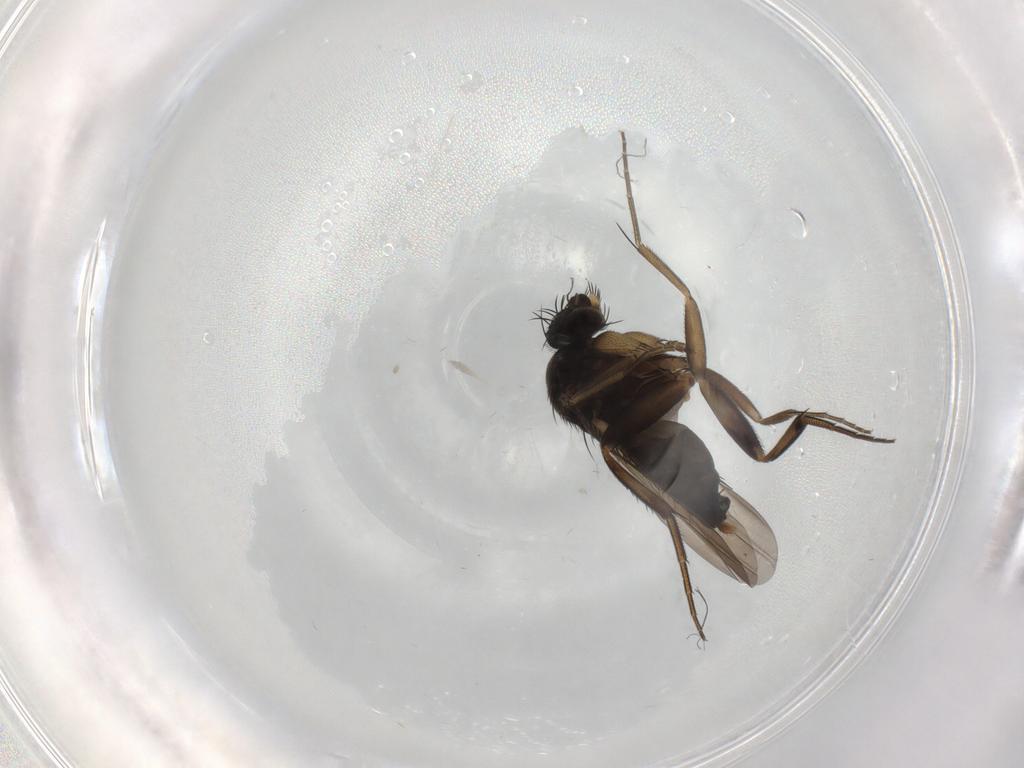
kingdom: Animalia
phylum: Arthropoda
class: Insecta
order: Diptera
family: Phoridae
